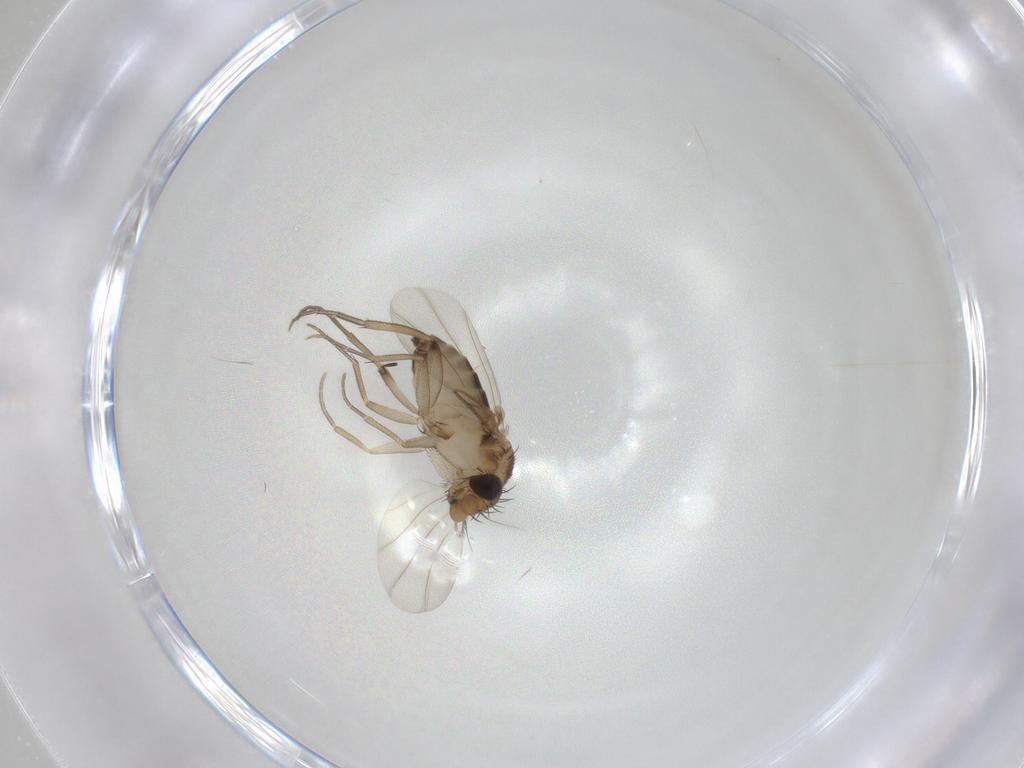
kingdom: Animalia
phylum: Arthropoda
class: Insecta
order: Diptera
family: Phoridae
